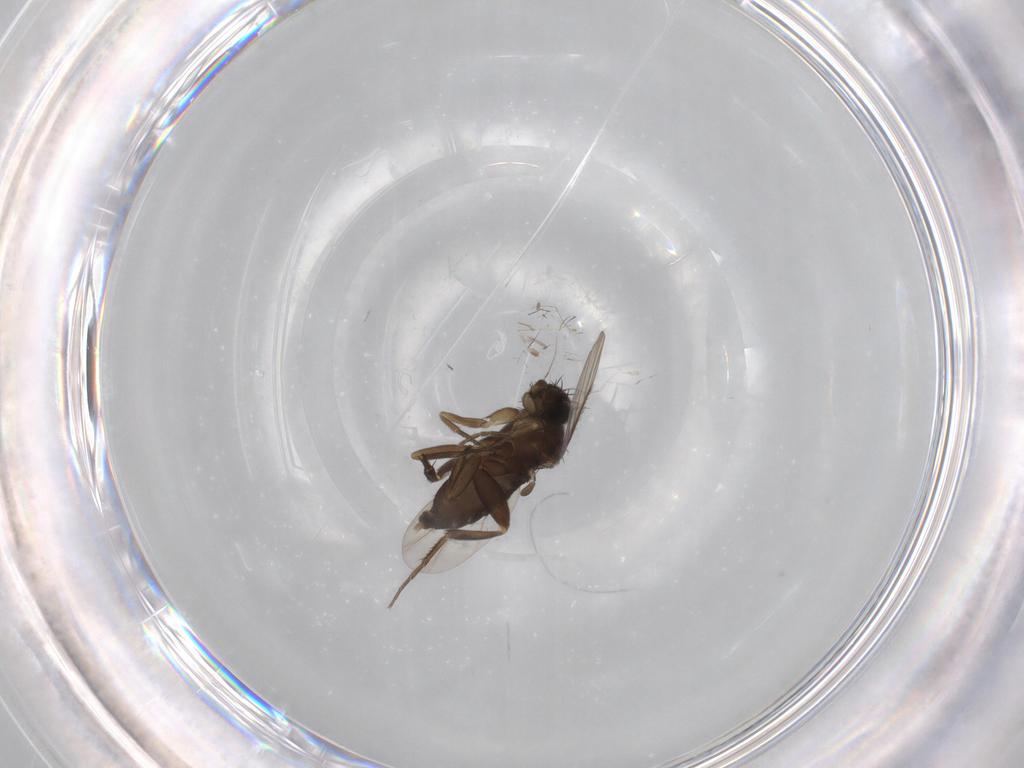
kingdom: Animalia
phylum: Arthropoda
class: Insecta
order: Diptera
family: Phoridae
